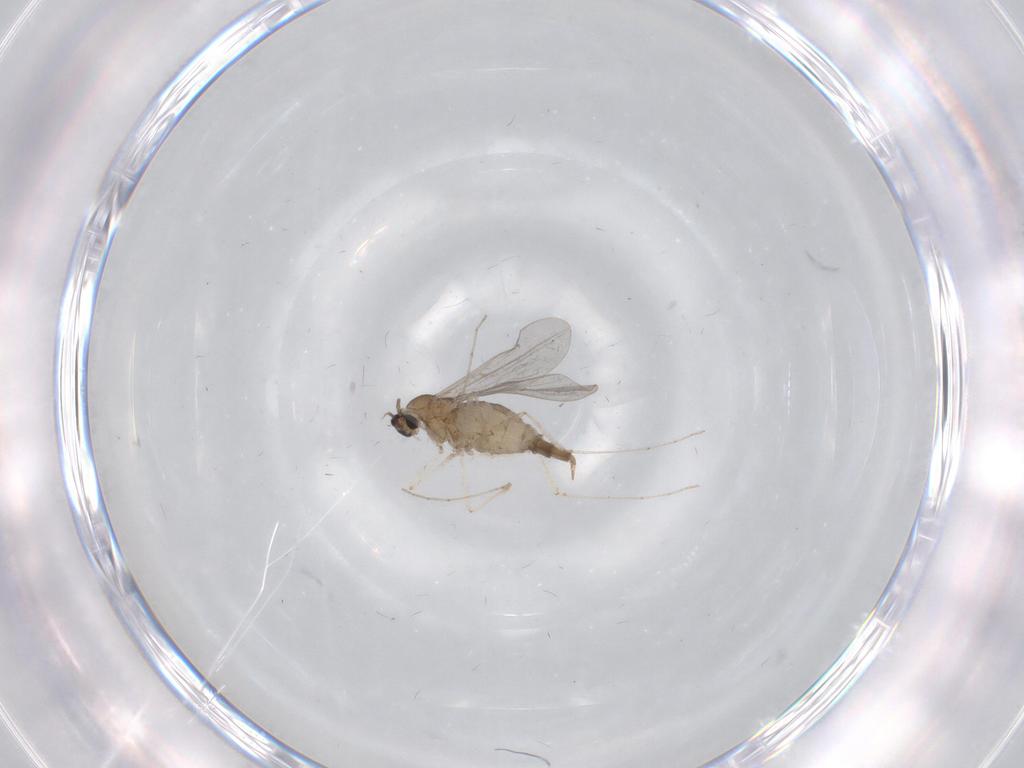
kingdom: Animalia
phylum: Arthropoda
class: Insecta
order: Diptera
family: Cecidomyiidae
